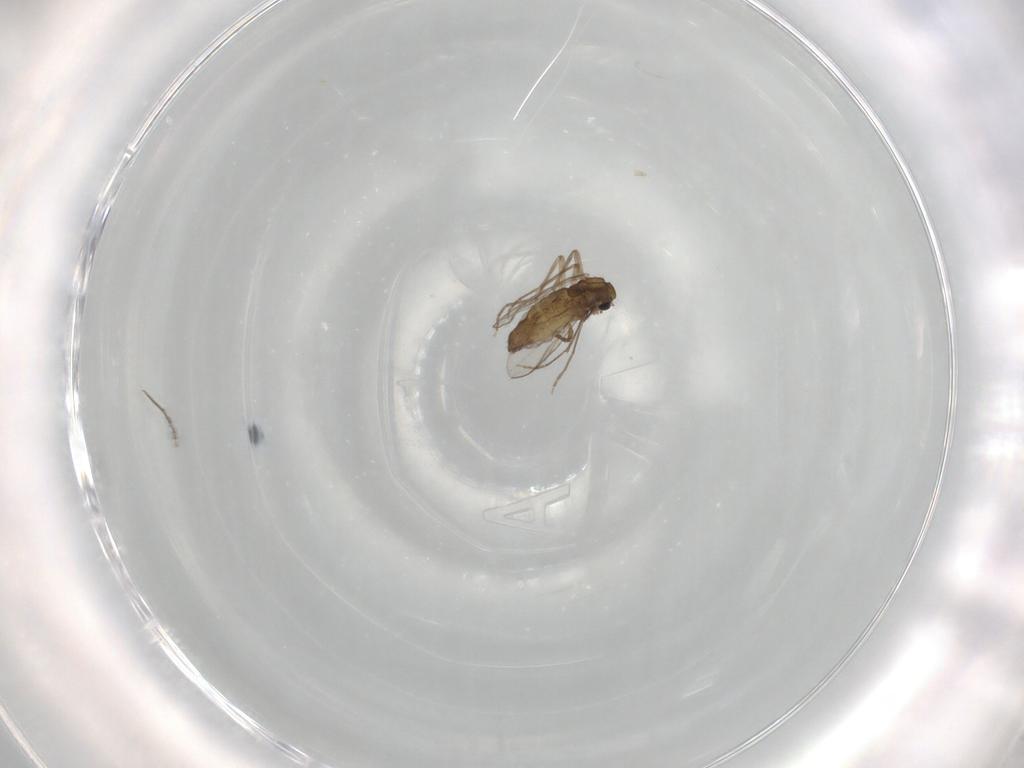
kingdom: Animalia
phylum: Arthropoda
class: Insecta
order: Diptera
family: Chironomidae
